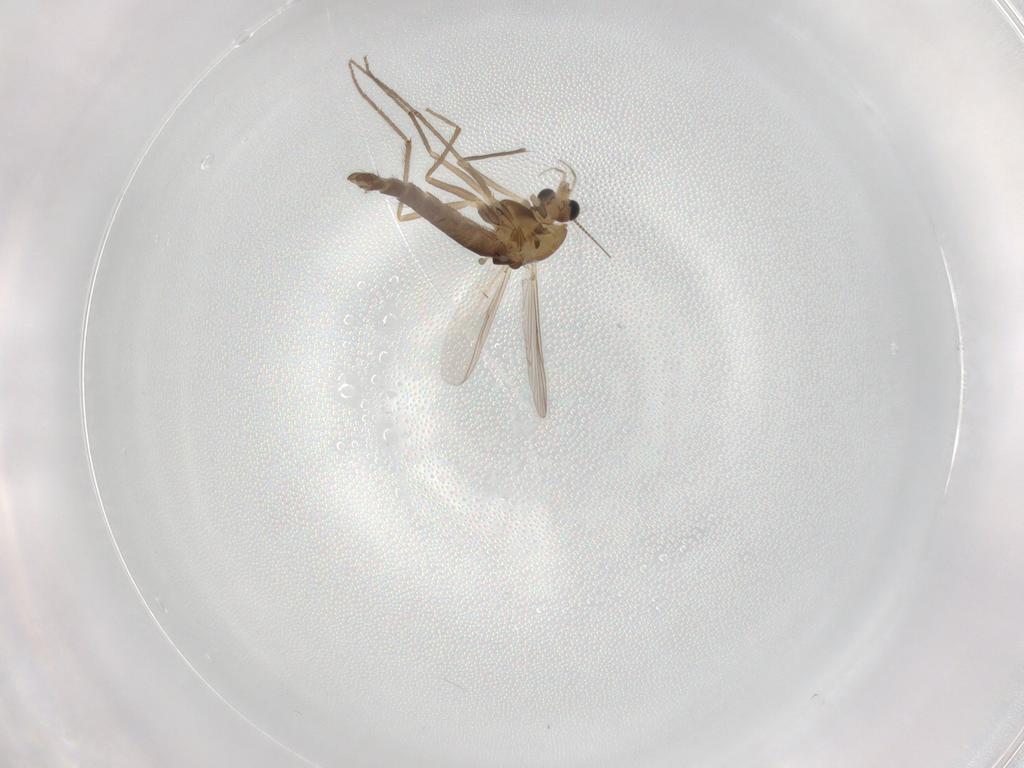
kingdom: Animalia
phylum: Arthropoda
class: Insecta
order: Diptera
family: Chironomidae
